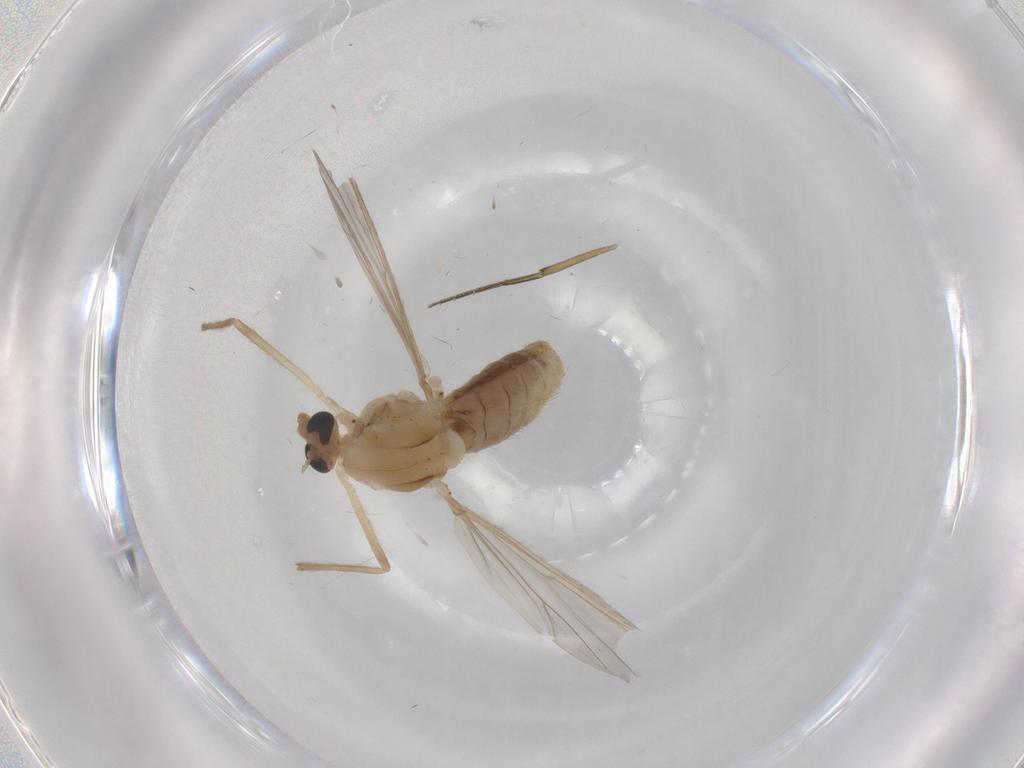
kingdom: Animalia
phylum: Arthropoda
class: Insecta
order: Diptera
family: Chironomidae
